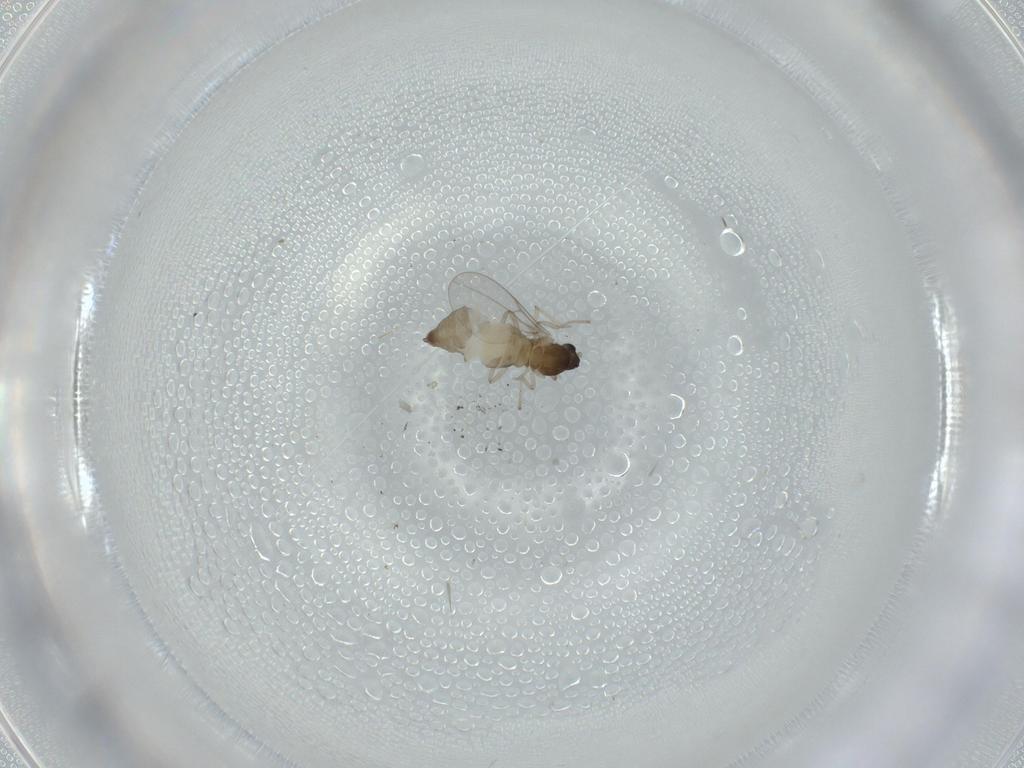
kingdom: Animalia
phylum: Arthropoda
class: Insecta
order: Diptera
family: Cecidomyiidae
